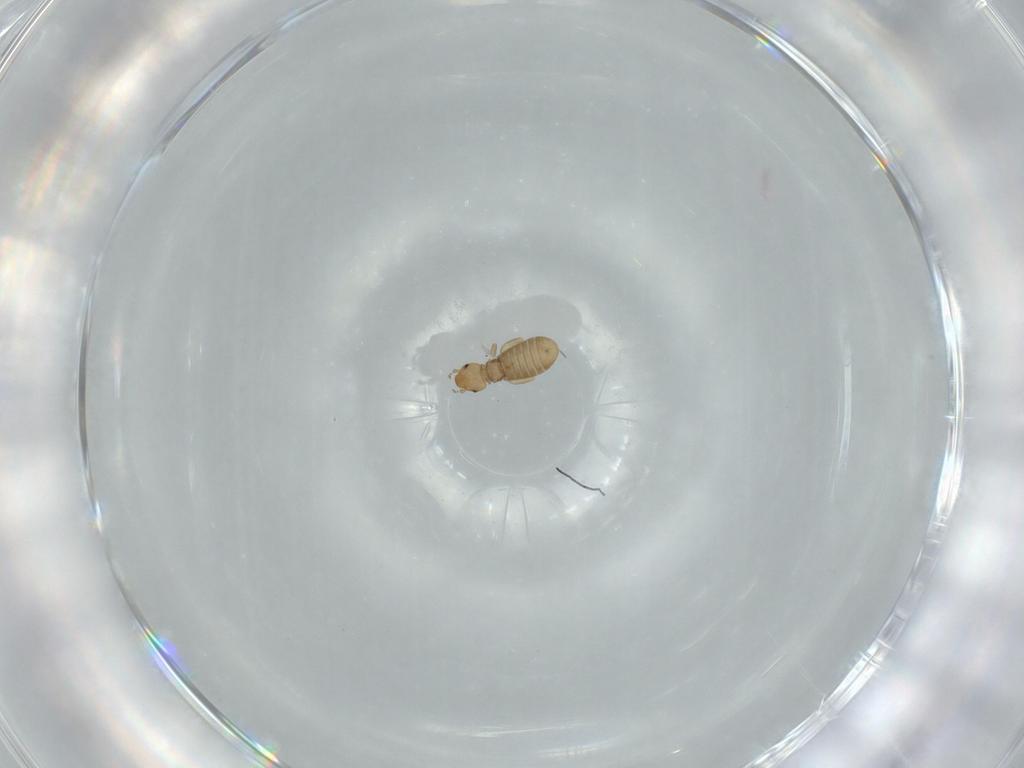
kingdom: Animalia
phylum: Arthropoda
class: Insecta
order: Psocodea
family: Liposcelididae
